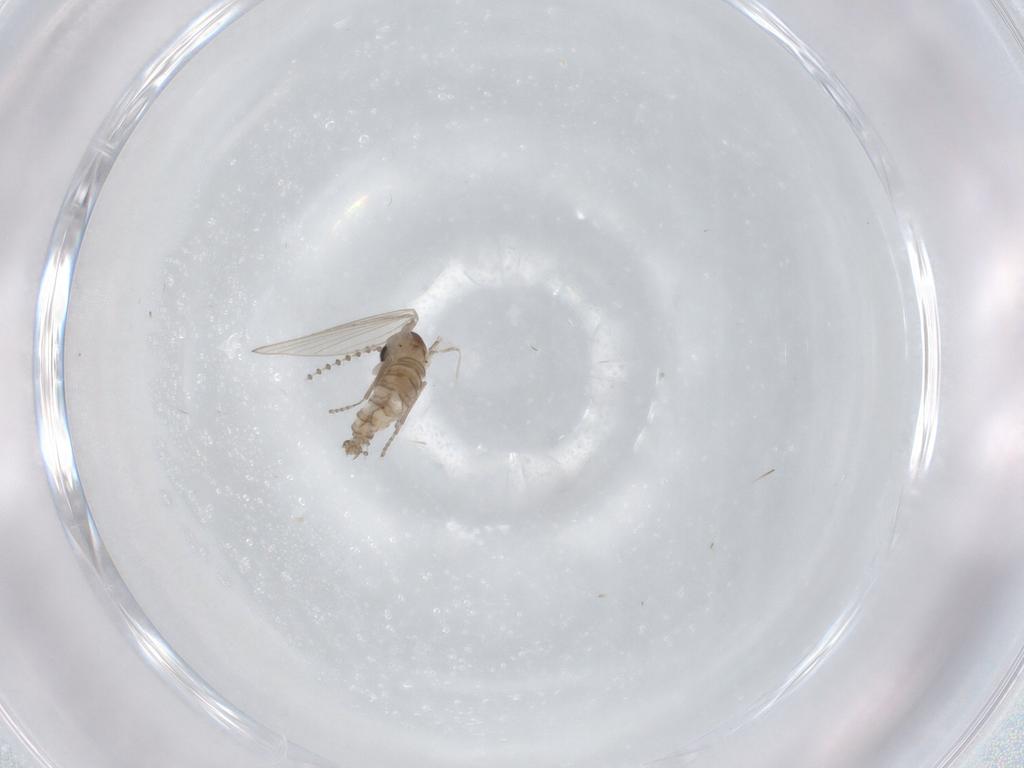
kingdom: Animalia
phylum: Arthropoda
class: Insecta
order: Diptera
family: Psychodidae
